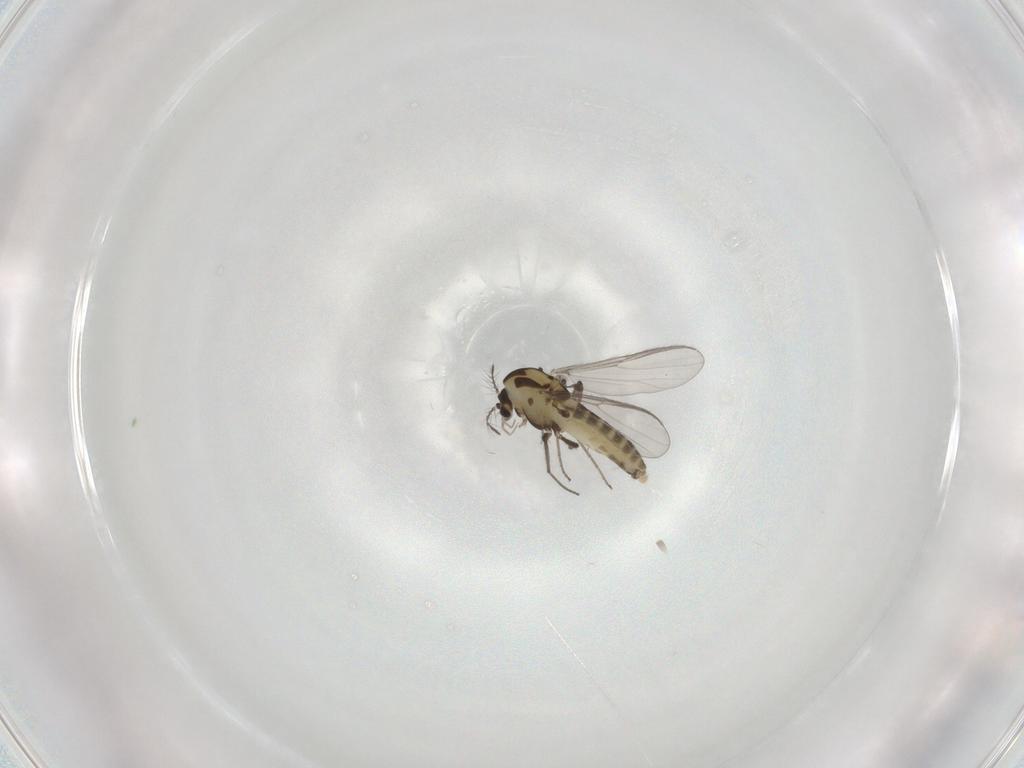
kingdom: Animalia
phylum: Arthropoda
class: Insecta
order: Diptera
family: Chironomidae
